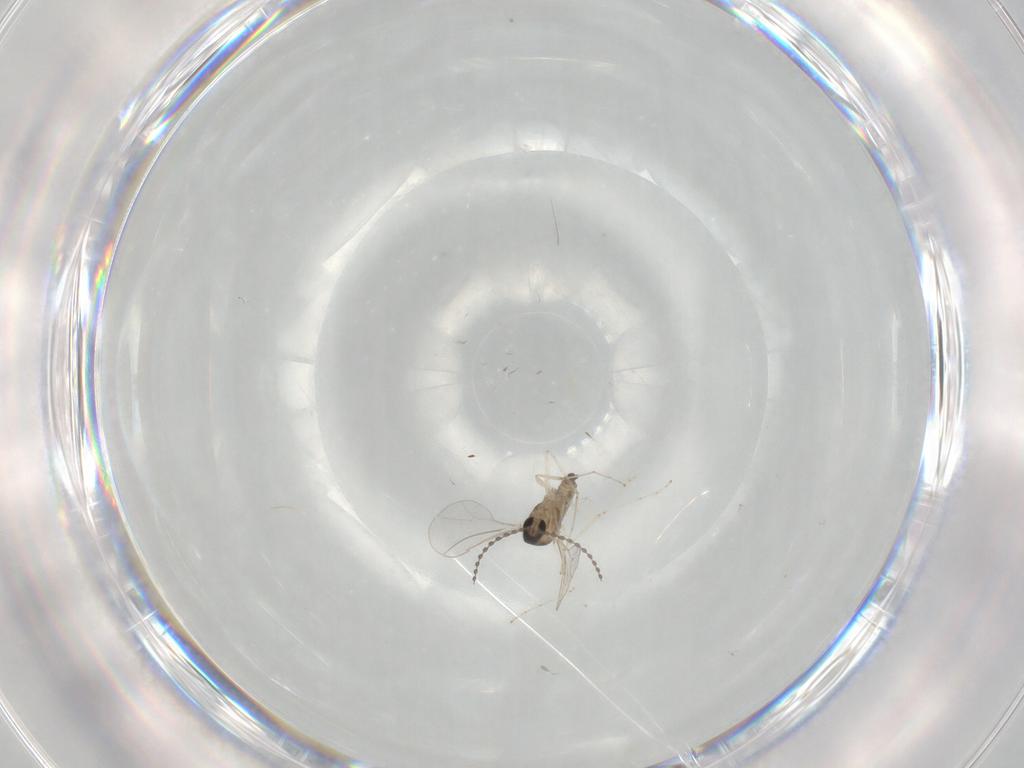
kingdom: Animalia
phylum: Arthropoda
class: Insecta
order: Diptera
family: Cecidomyiidae
